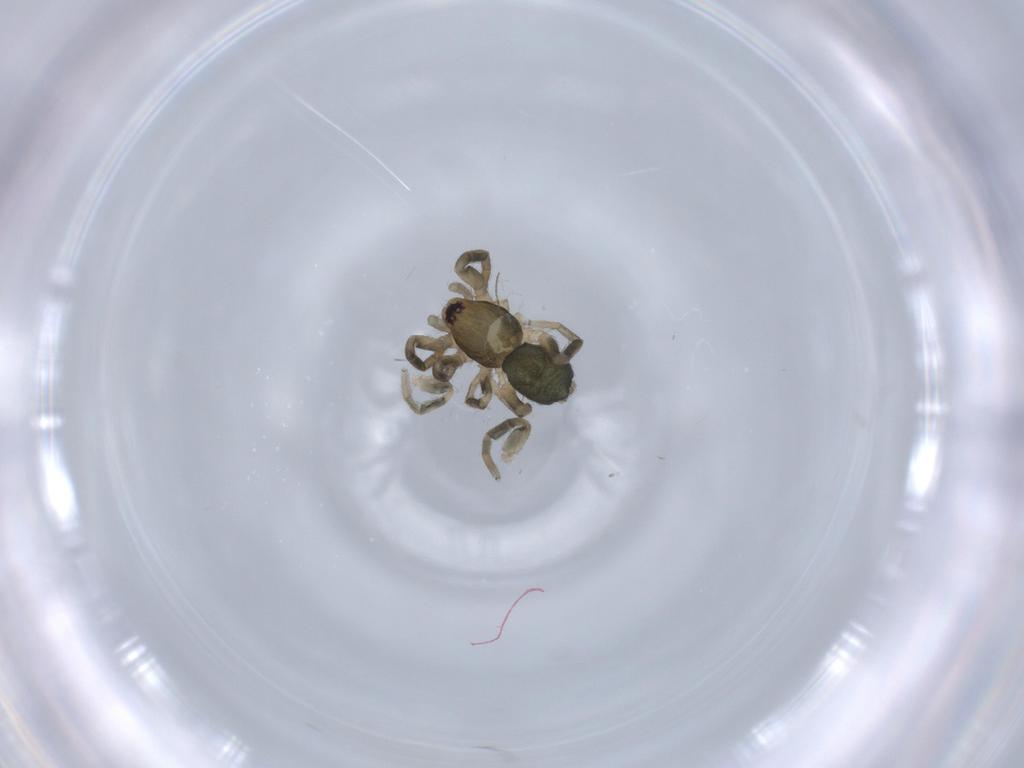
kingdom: Animalia
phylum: Arthropoda
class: Arachnida
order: Araneae
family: Gnaphosidae
